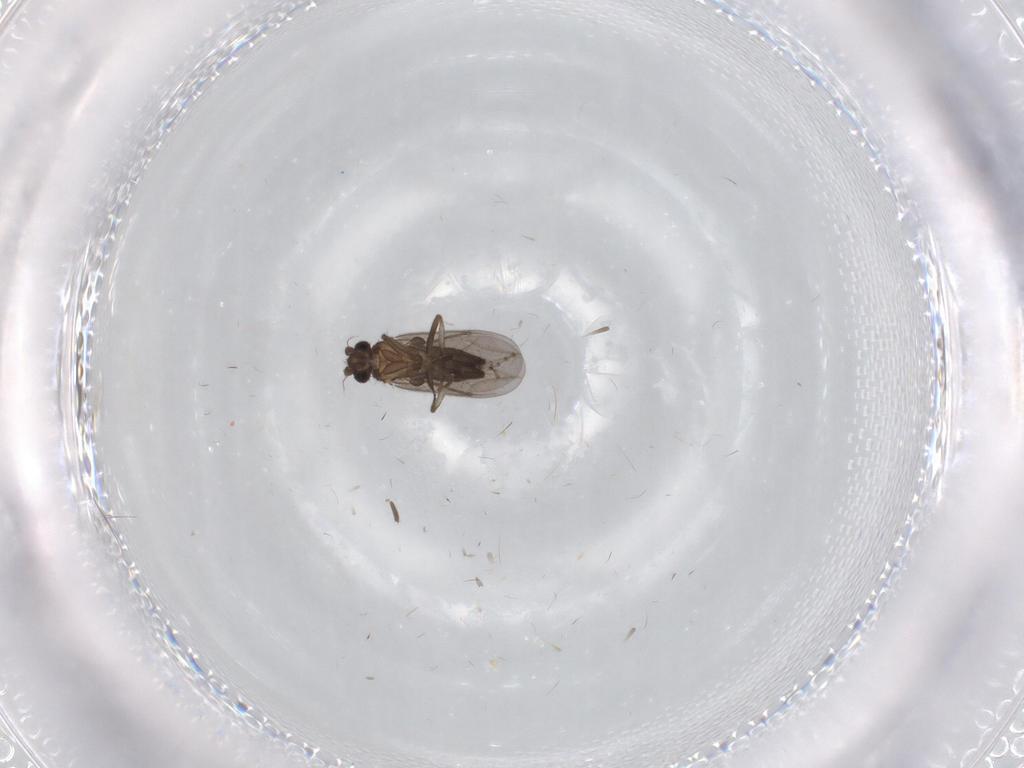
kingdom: Animalia
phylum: Arthropoda
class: Insecta
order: Diptera
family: Phoridae
